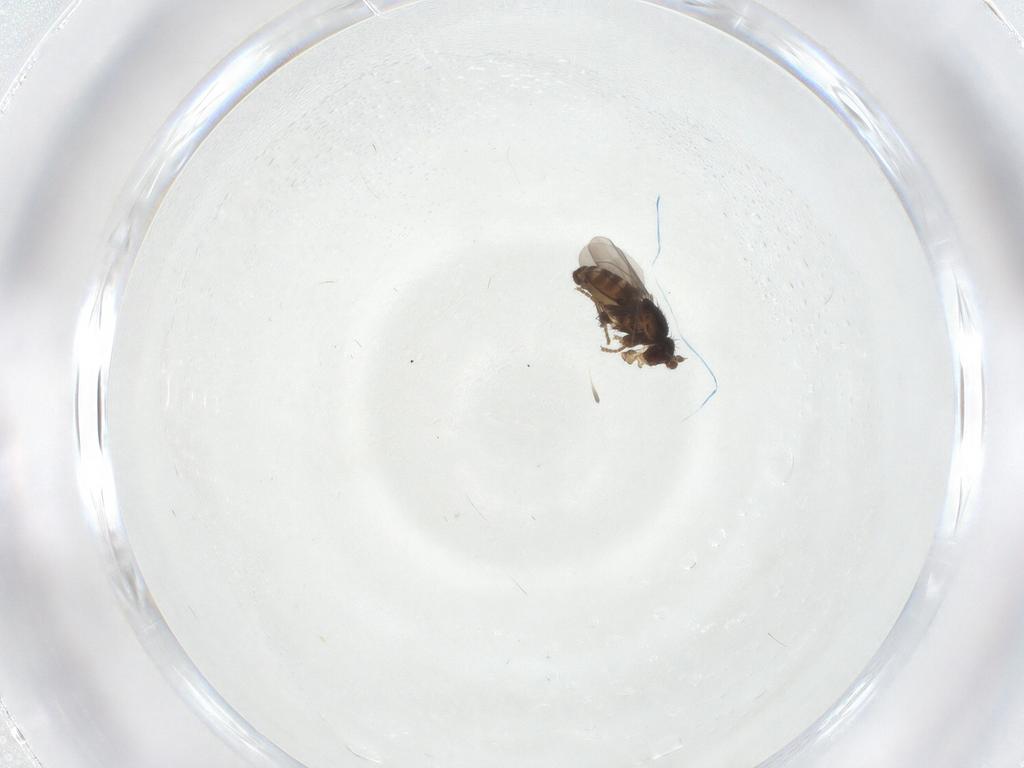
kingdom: Animalia
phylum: Arthropoda
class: Insecta
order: Diptera
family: Sphaeroceridae
